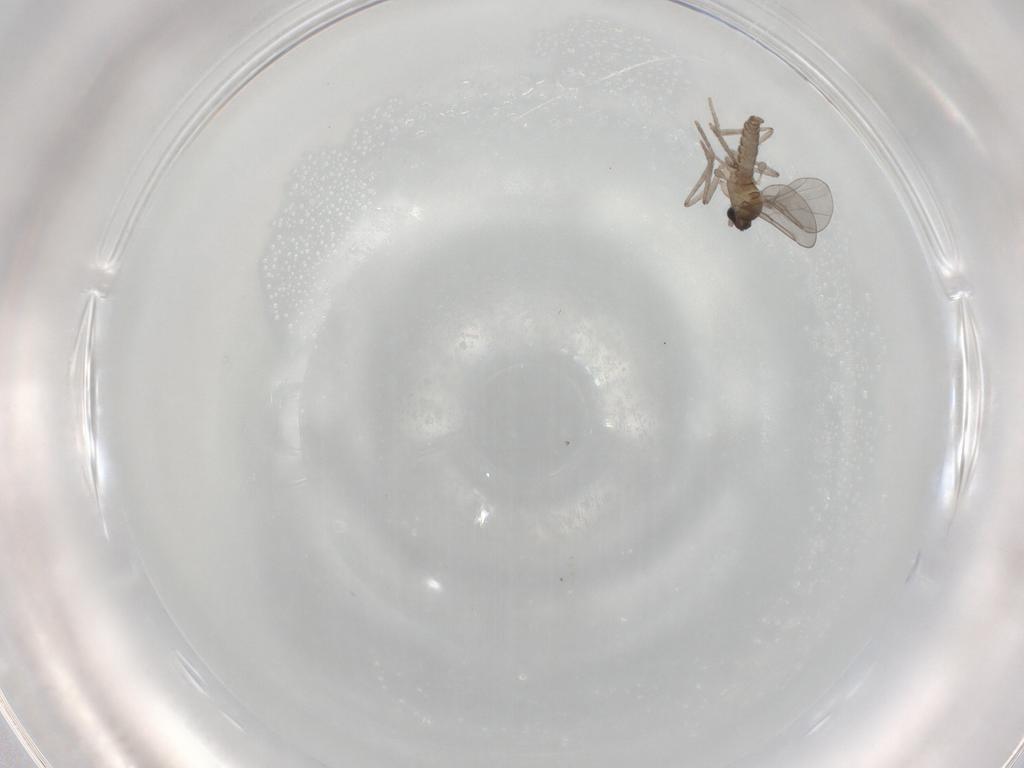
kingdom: Animalia
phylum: Arthropoda
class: Insecta
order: Diptera
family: Cecidomyiidae
